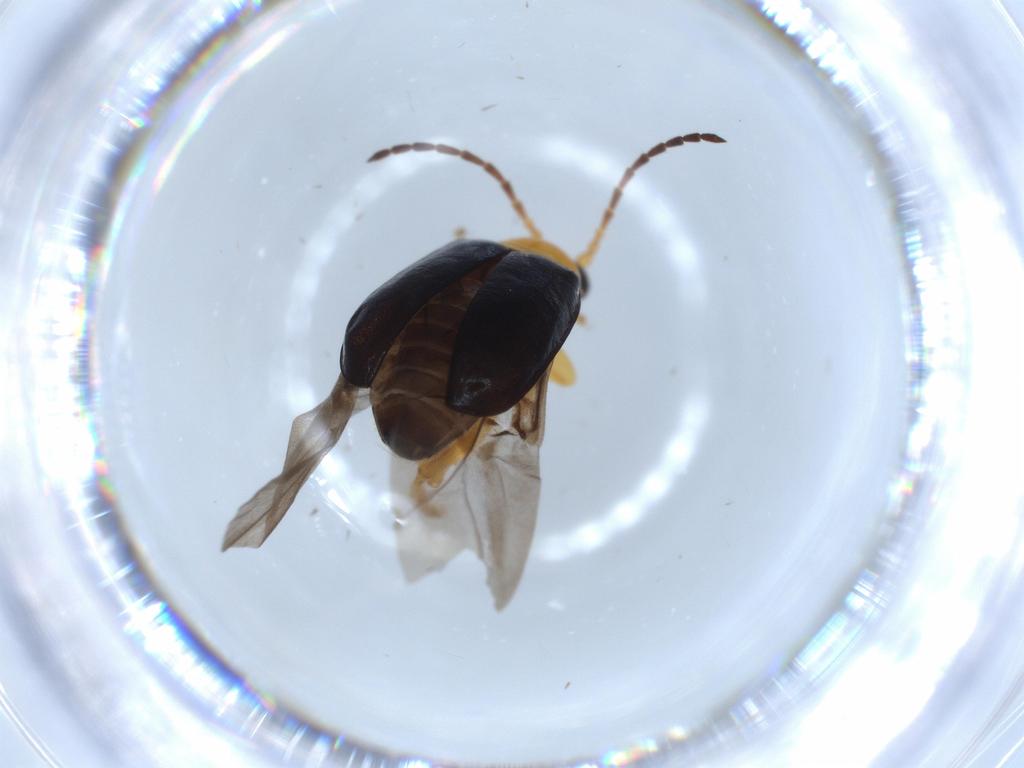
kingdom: Animalia
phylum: Arthropoda
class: Insecta
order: Coleoptera
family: Chrysomelidae
